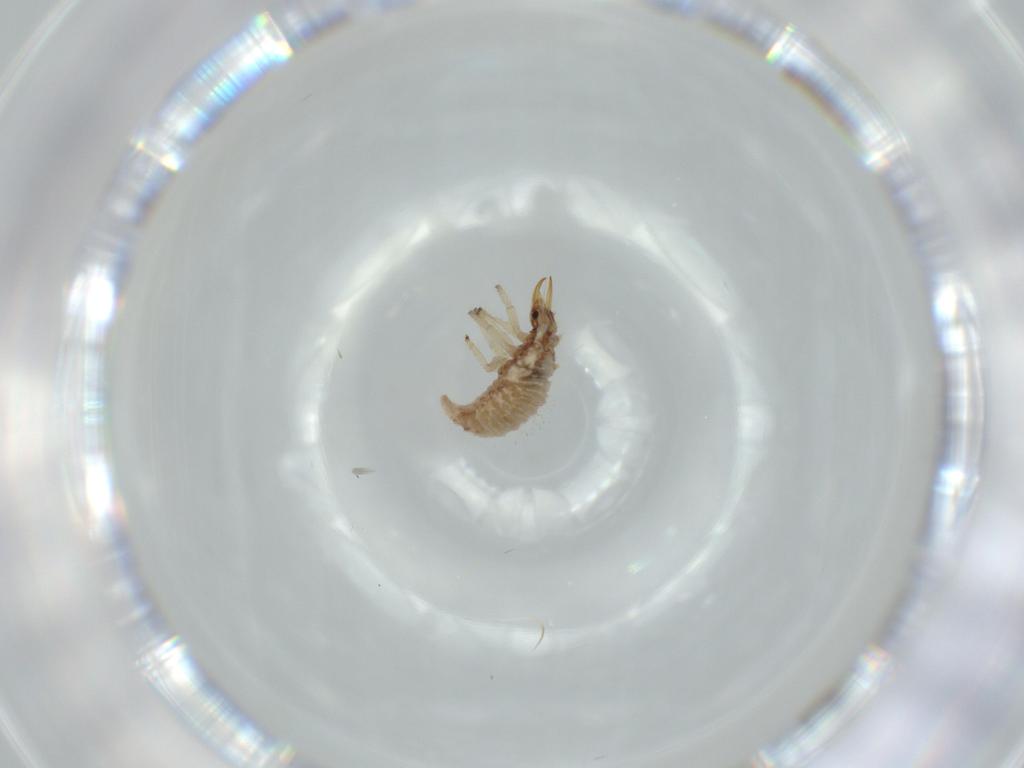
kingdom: Animalia
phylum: Arthropoda
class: Insecta
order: Neuroptera
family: Chrysopidae
